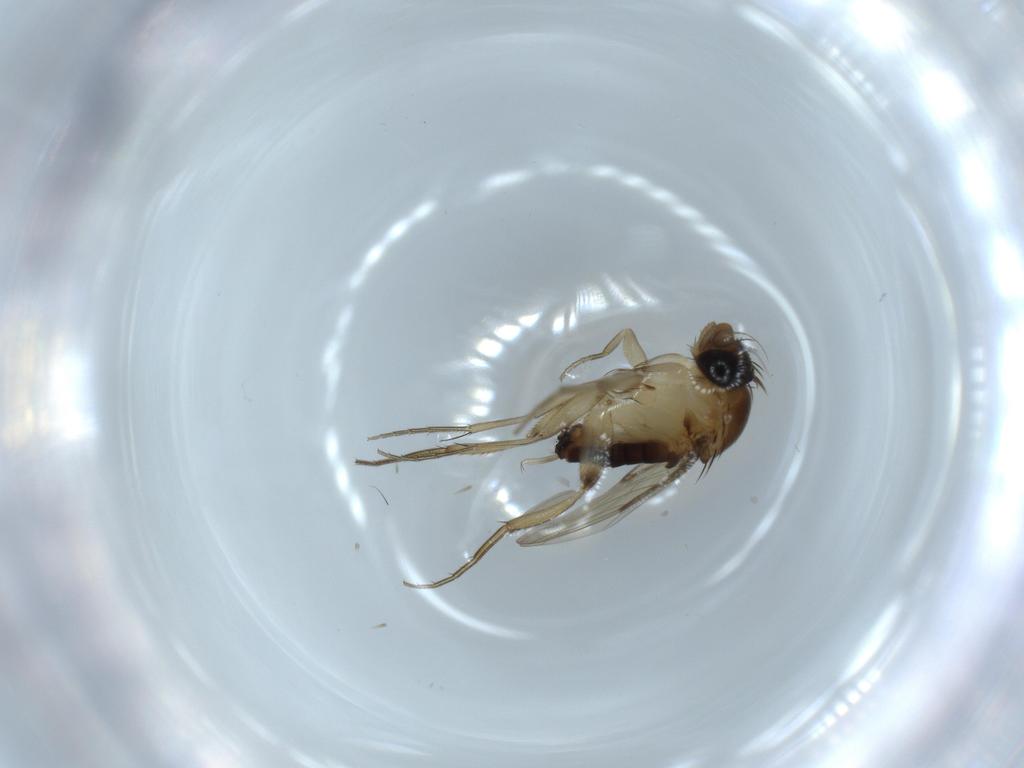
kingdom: Animalia
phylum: Arthropoda
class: Insecta
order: Diptera
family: Phoridae
